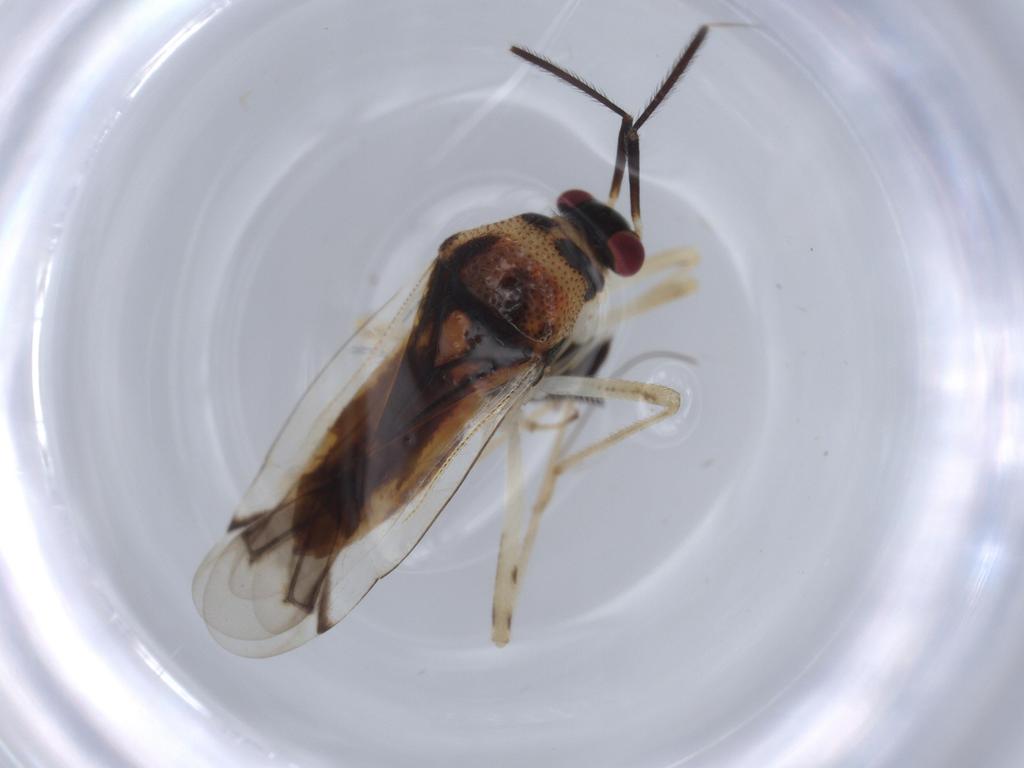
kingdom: Animalia
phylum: Arthropoda
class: Insecta
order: Hemiptera
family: Miridae
